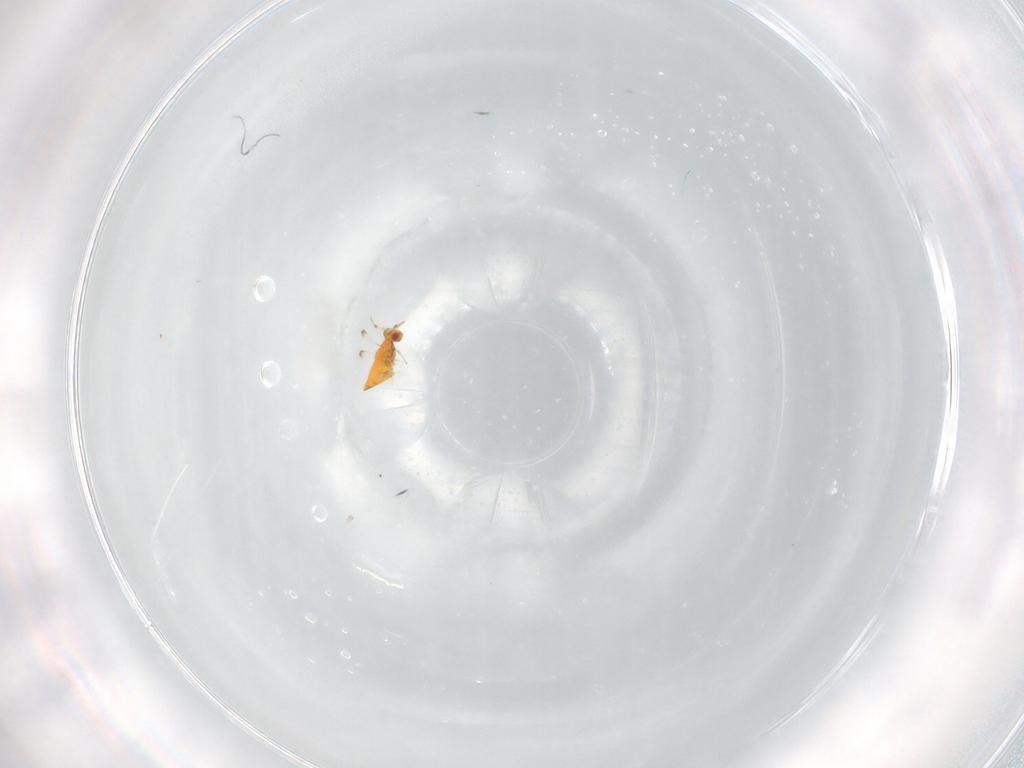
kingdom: Animalia
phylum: Arthropoda
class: Insecta
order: Hymenoptera
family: Trichogrammatidae
